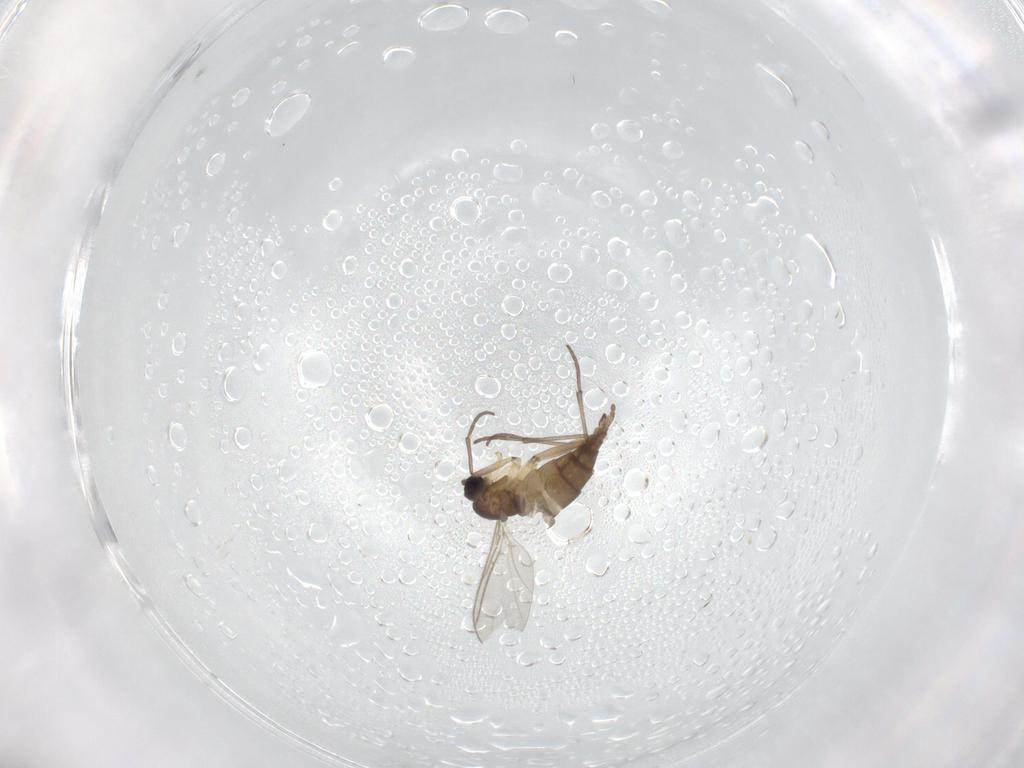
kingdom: Animalia
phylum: Arthropoda
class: Insecta
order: Diptera
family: Sciaridae
